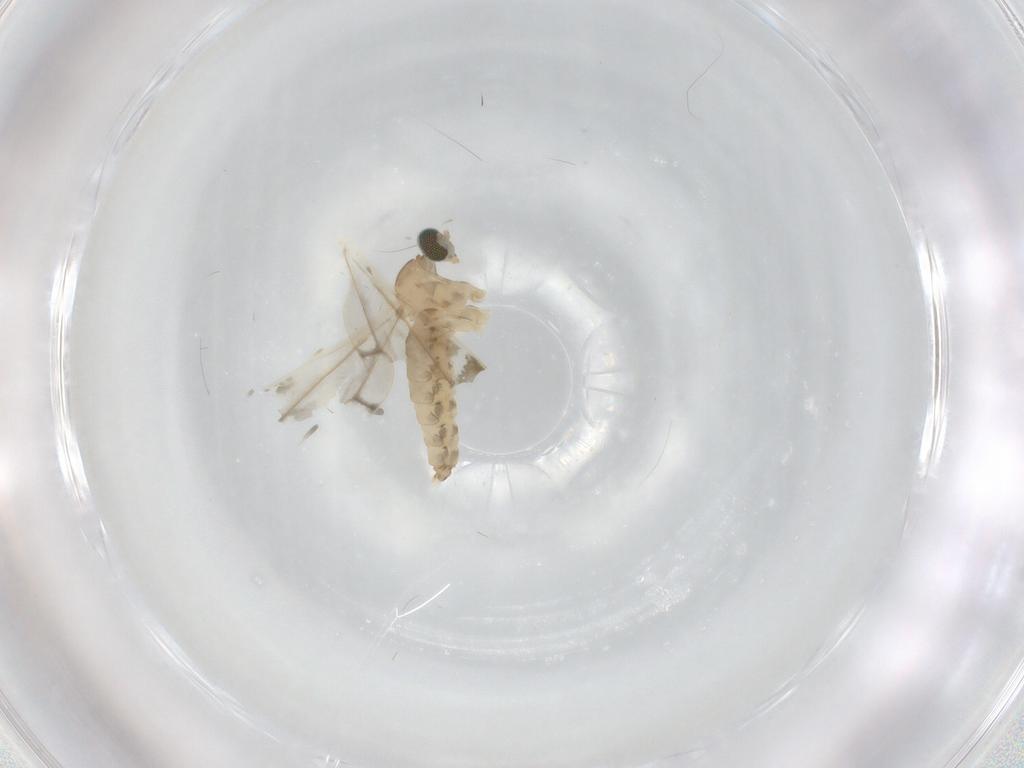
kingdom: Animalia
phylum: Arthropoda
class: Insecta
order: Diptera
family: Cecidomyiidae
